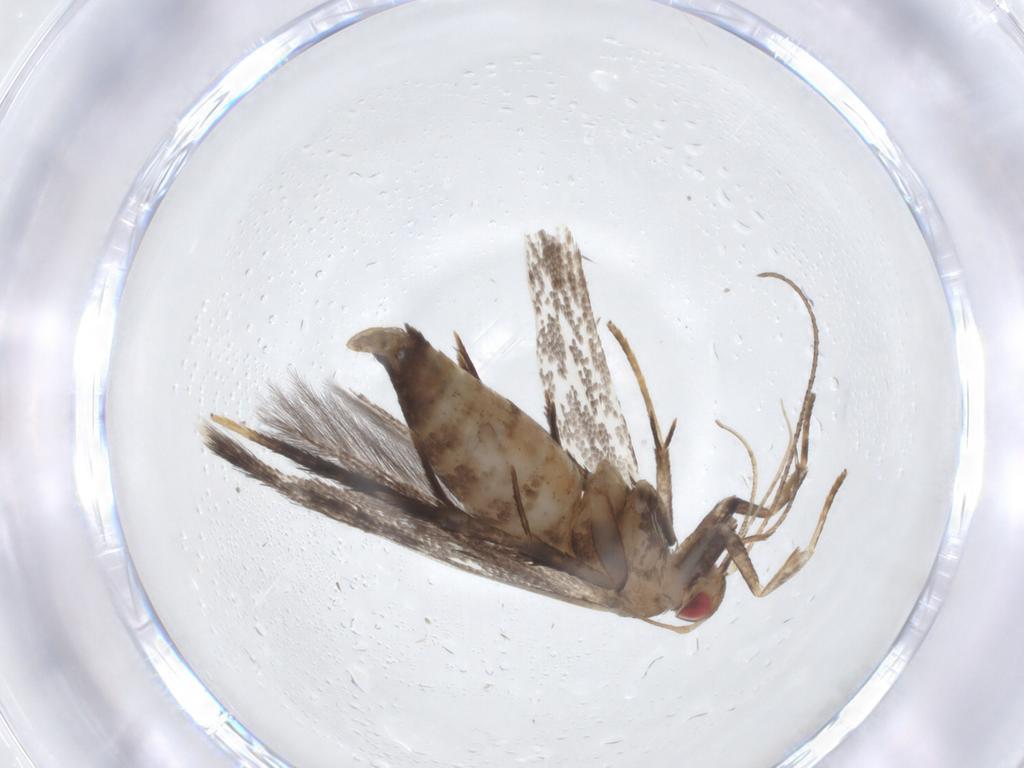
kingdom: Animalia
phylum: Arthropoda
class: Insecta
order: Lepidoptera
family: Gelechiidae
